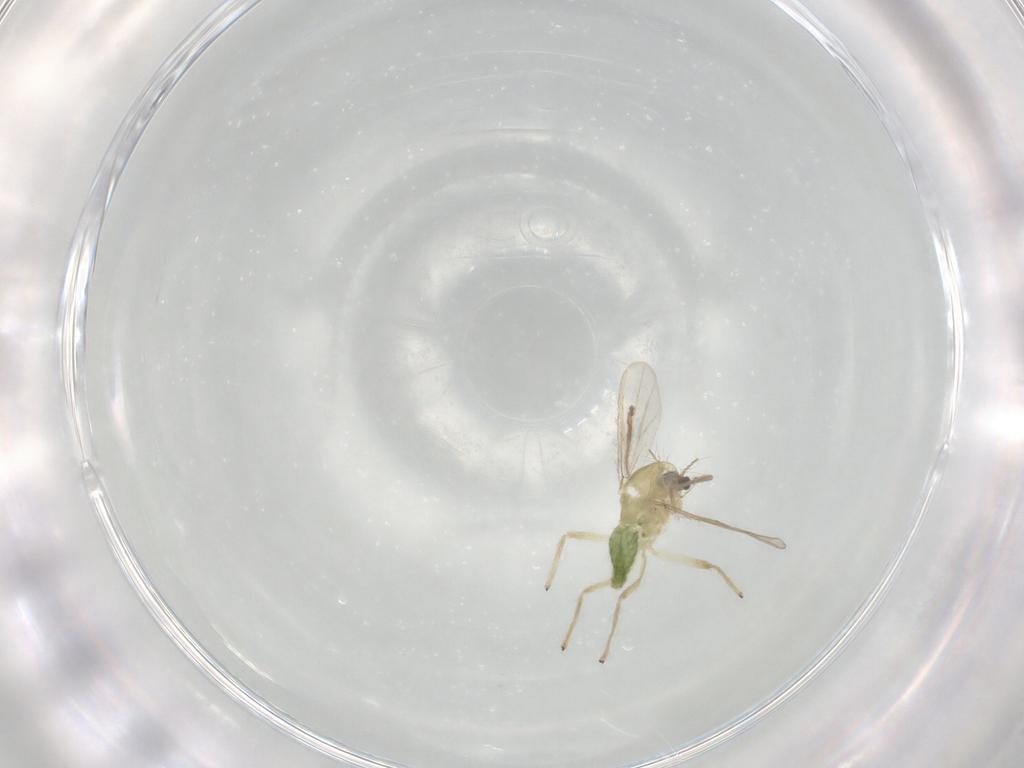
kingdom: Animalia
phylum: Arthropoda
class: Insecta
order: Diptera
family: Chironomidae
